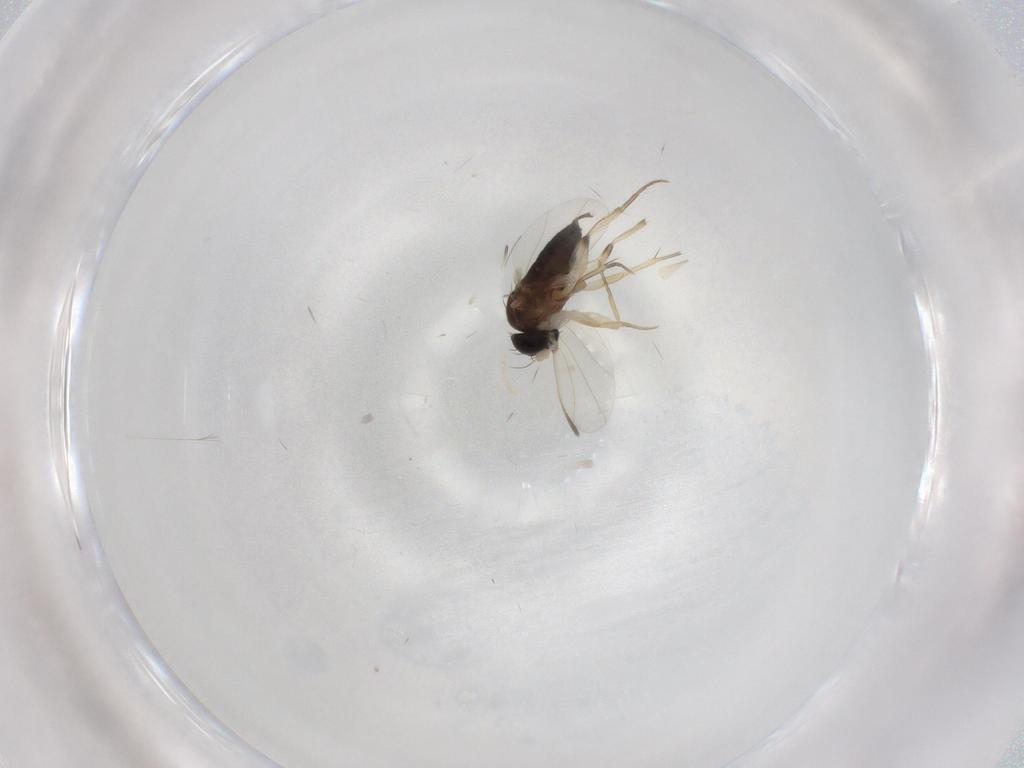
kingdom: Animalia
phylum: Arthropoda
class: Insecta
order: Diptera
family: Phoridae
